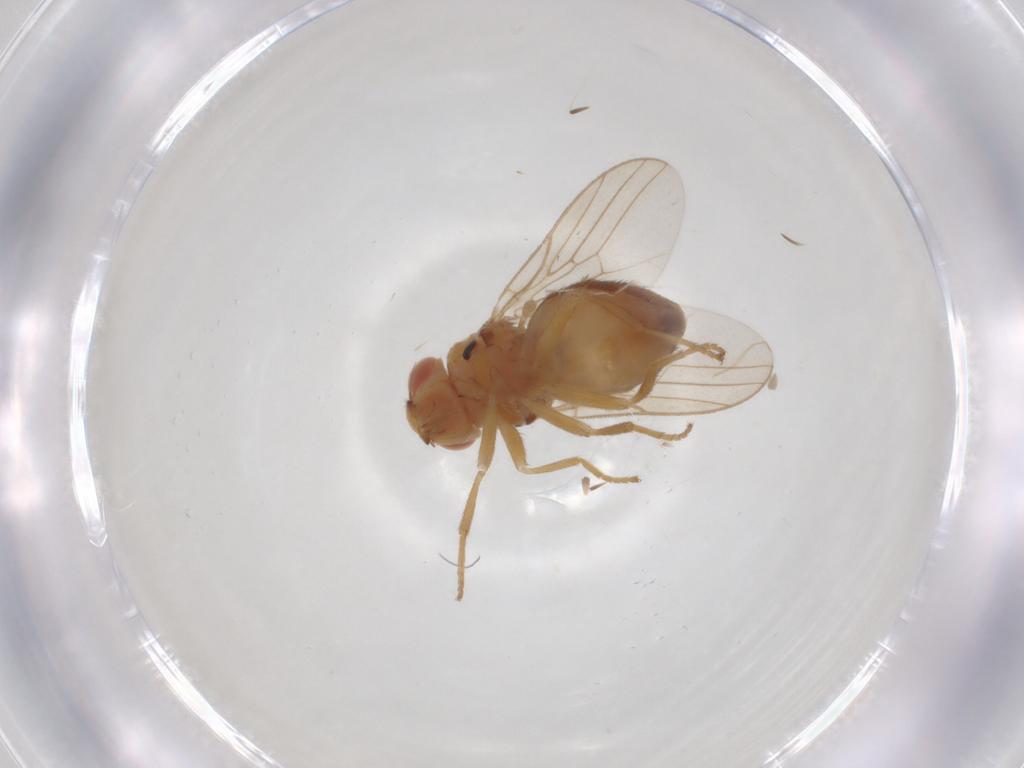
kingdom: Animalia
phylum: Arthropoda
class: Insecta
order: Diptera
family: Chloropidae
